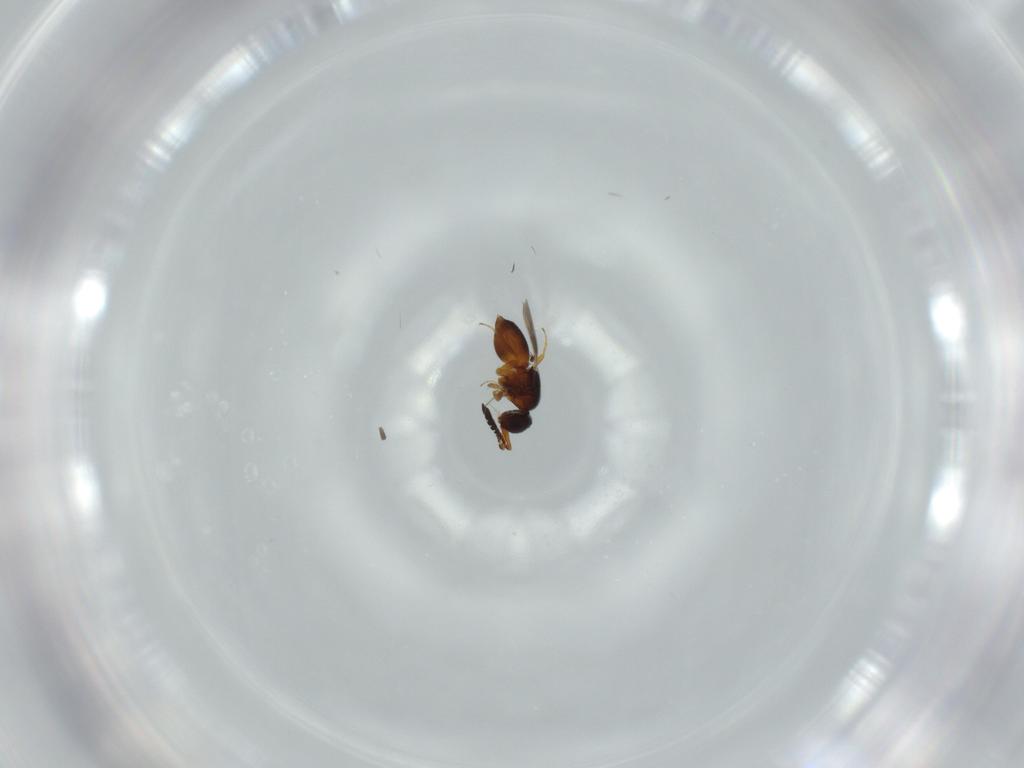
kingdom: Animalia
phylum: Arthropoda
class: Insecta
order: Hymenoptera
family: Ceraphronidae
